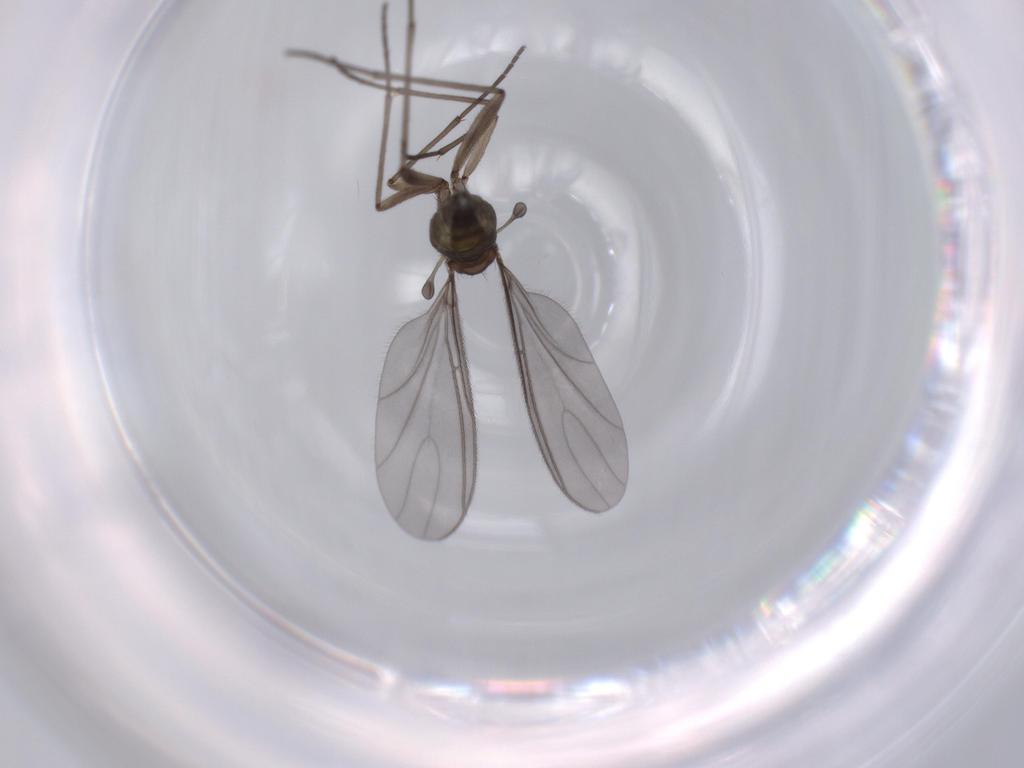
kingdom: Animalia
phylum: Arthropoda
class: Insecta
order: Diptera
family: Sciaridae
